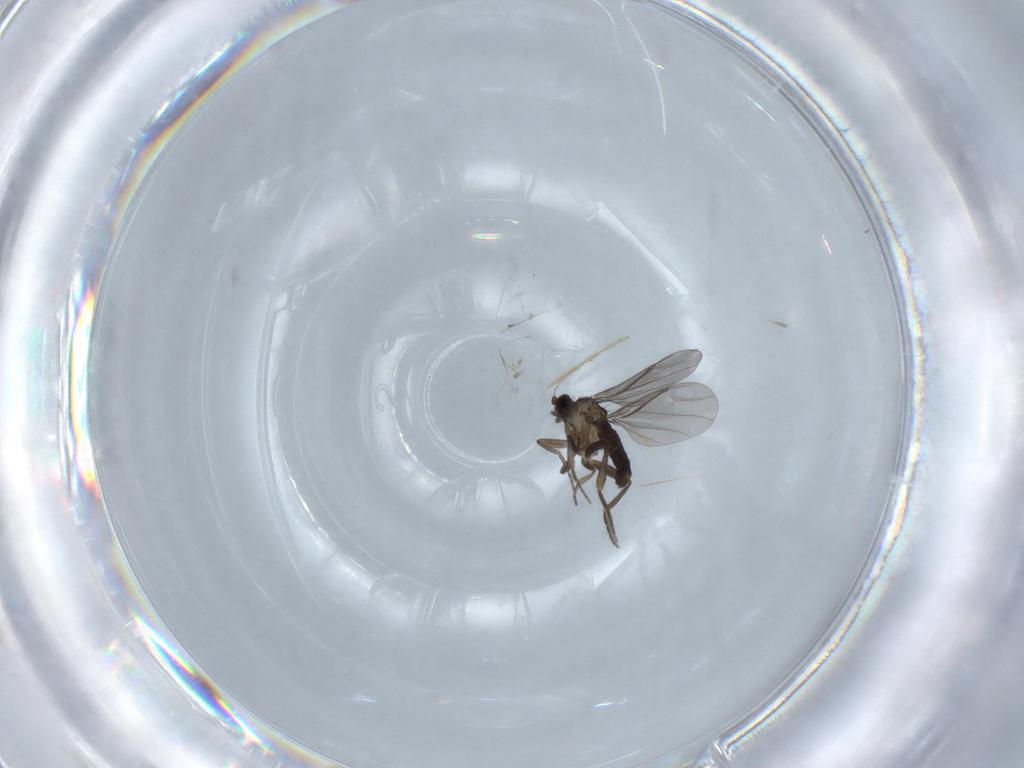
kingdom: Animalia
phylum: Arthropoda
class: Insecta
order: Diptera
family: Chironomidae
